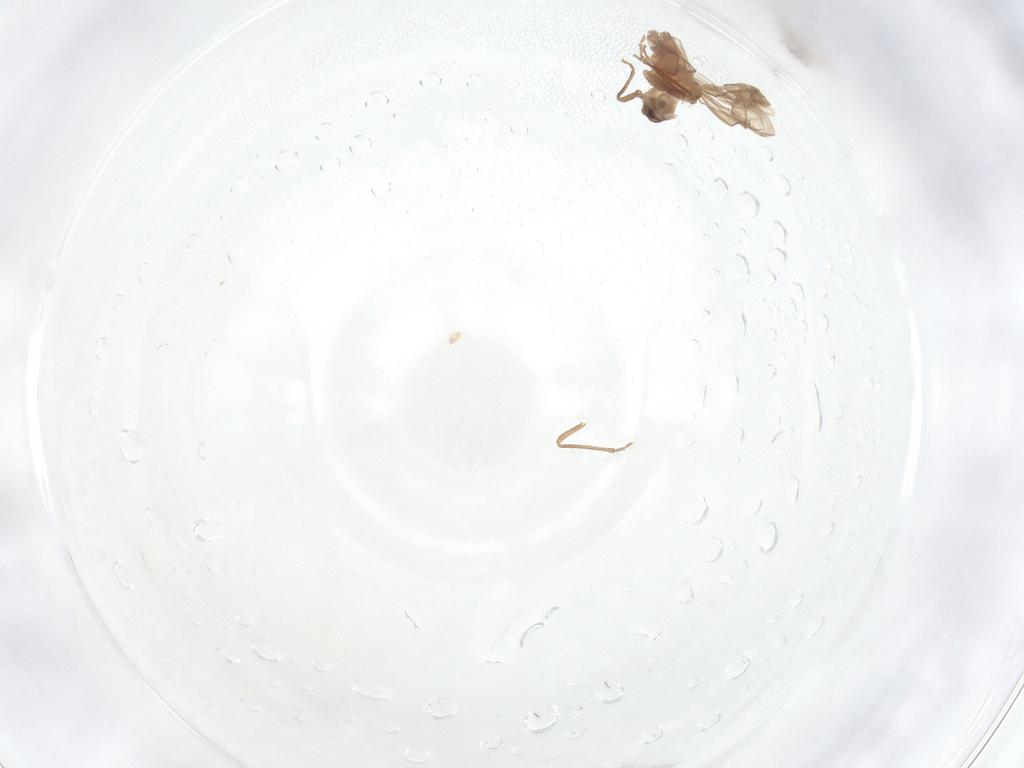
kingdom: Animalia
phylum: Arthropoda
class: Insecta
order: Hemiptera
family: Aleyrodidae
